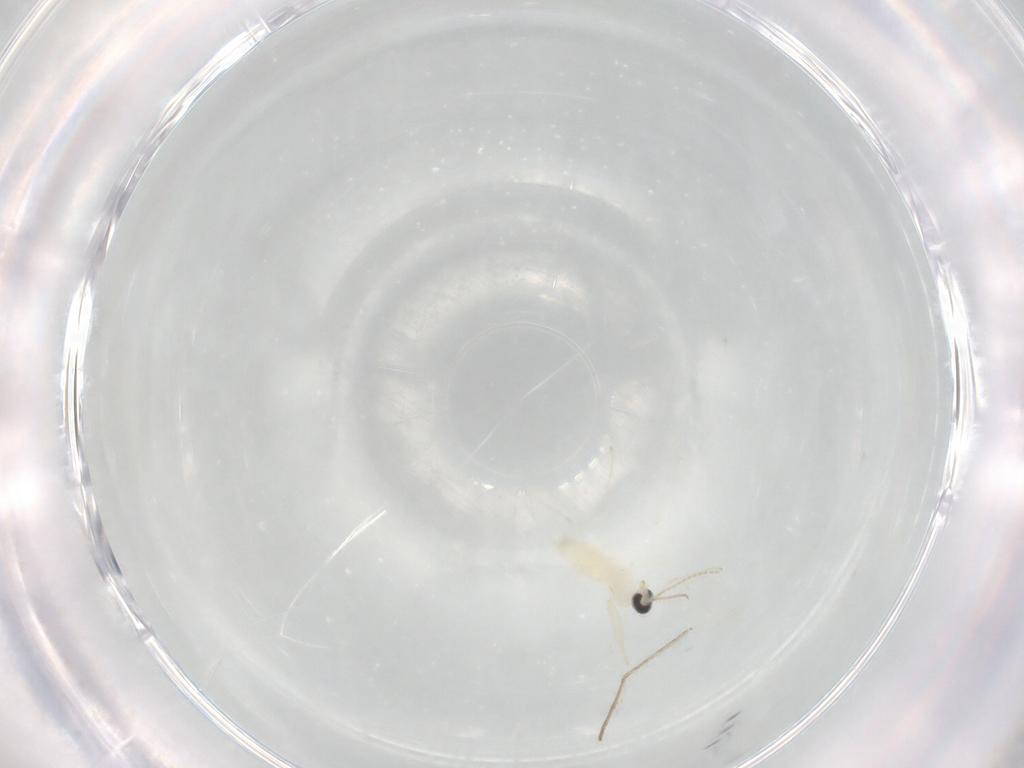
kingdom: Animalia
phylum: Arthropoda
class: Insecta
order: Diptera
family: Cecidomyiidae
